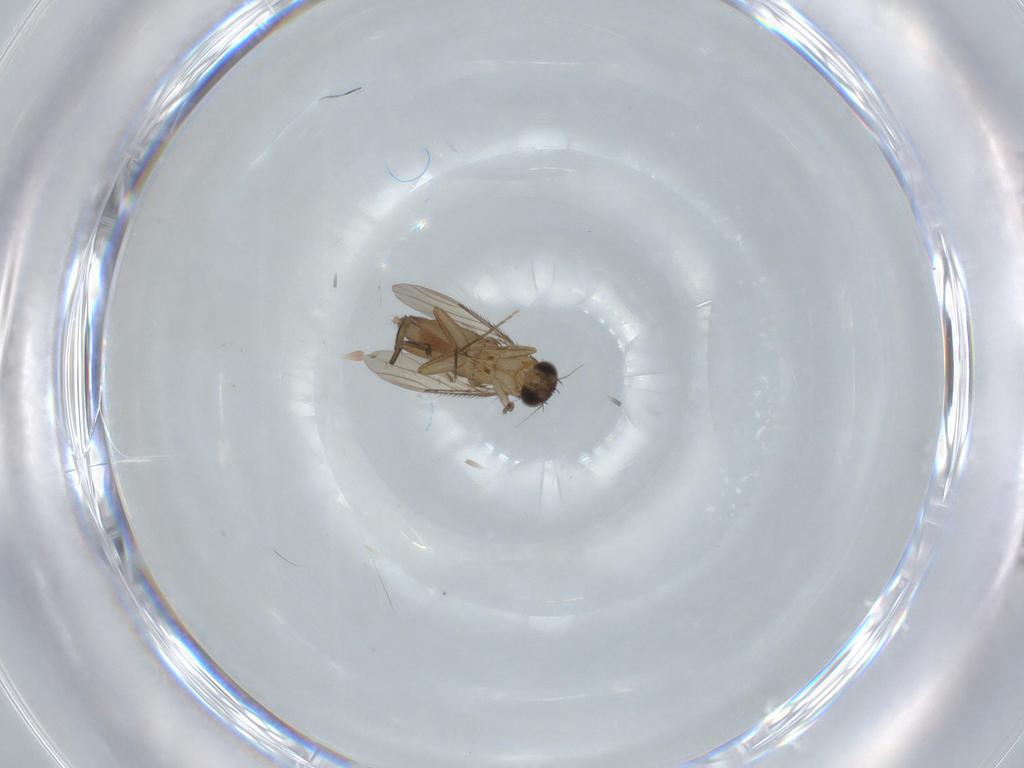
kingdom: Animalia
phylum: Arthropoda
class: Insecta
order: Diptera
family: Phoridae
